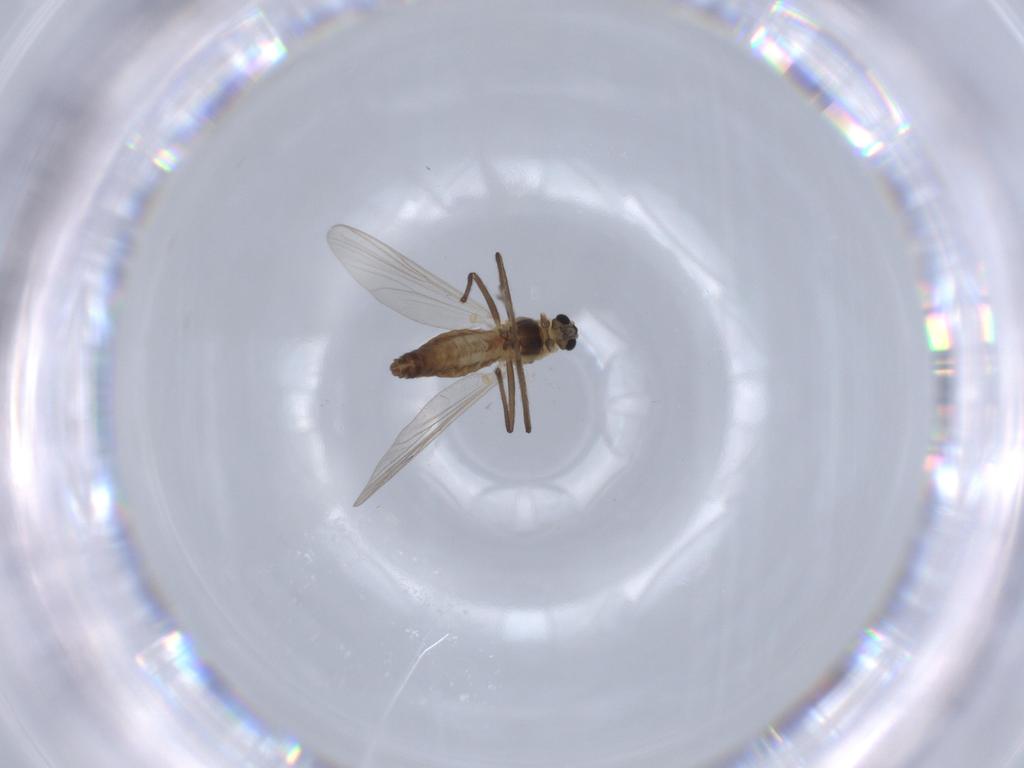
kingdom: Animalia
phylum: Arthropoda
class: Insecta
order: Diptera
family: Chironomidae
